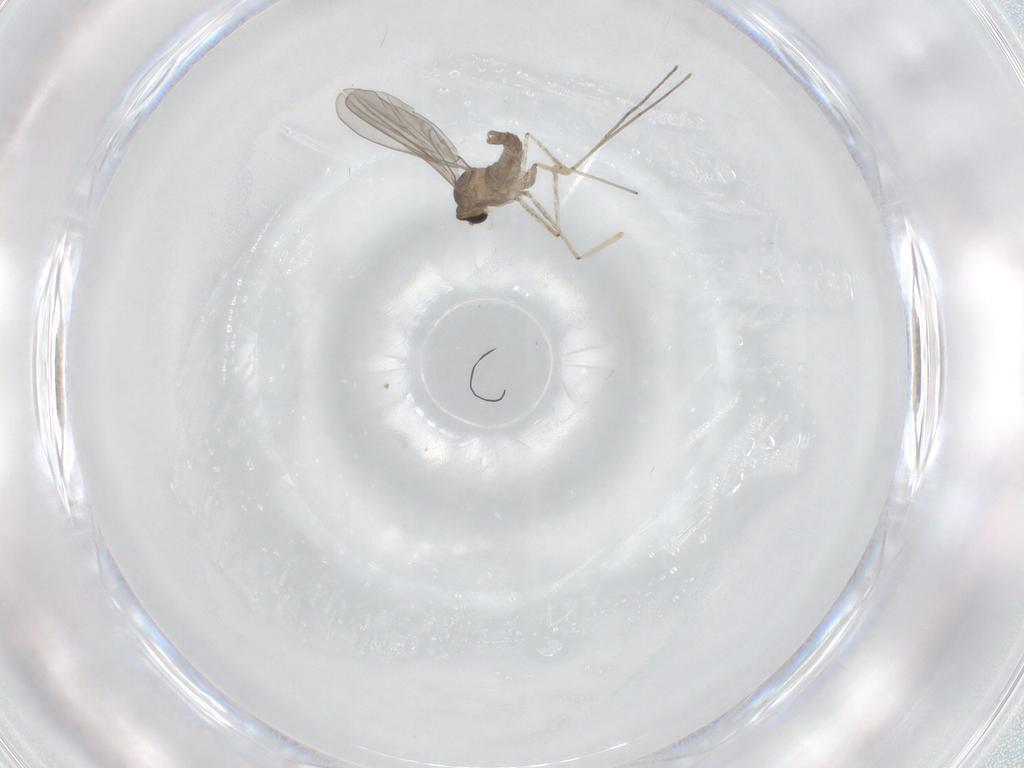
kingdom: Animalia
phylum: Arthropoda
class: Insecta
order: Diptera
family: Cecidomyiidae
